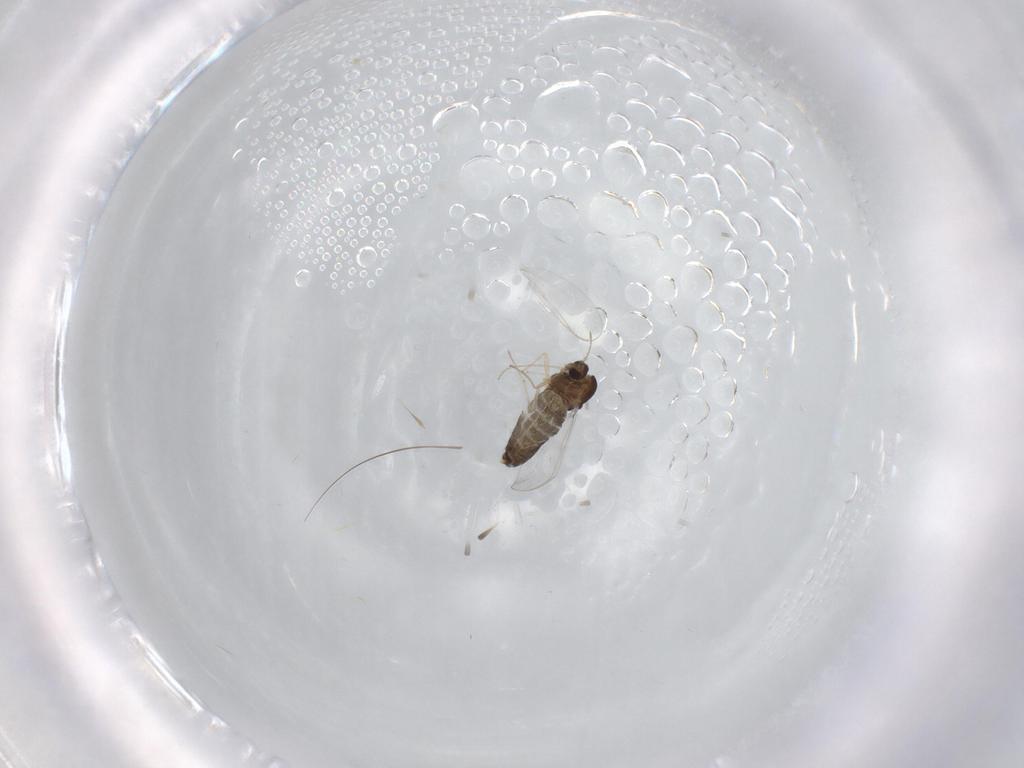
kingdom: Animalia
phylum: Arthropoda
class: Insecta
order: Diptera
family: Chironomidae
